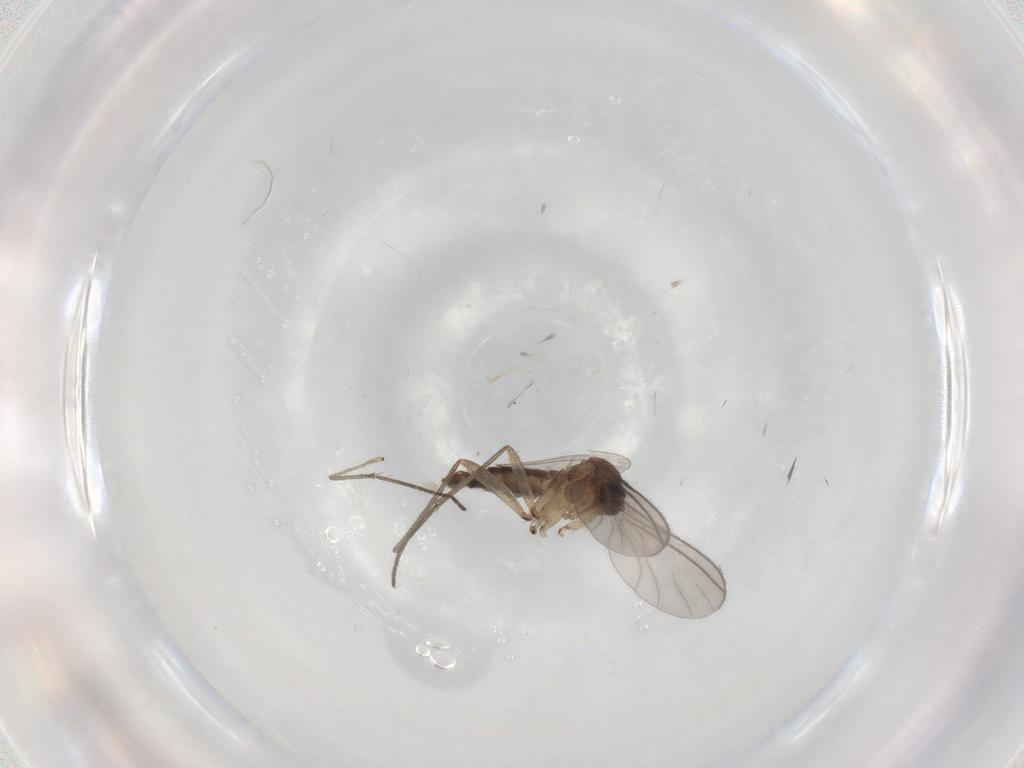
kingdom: Animalia
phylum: Arthropoda
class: Insecta
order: Diptera
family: Sciaridae
